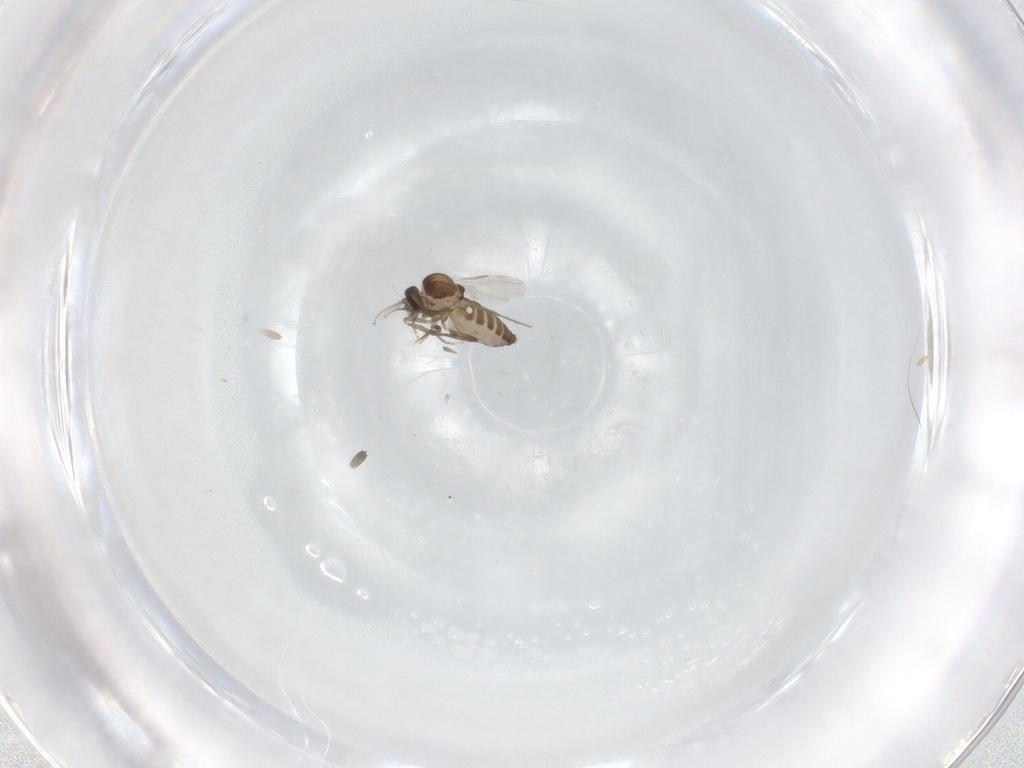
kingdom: Animalia
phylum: Arthropoda
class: Insecta
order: Diptera
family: Ceratopogonidae
